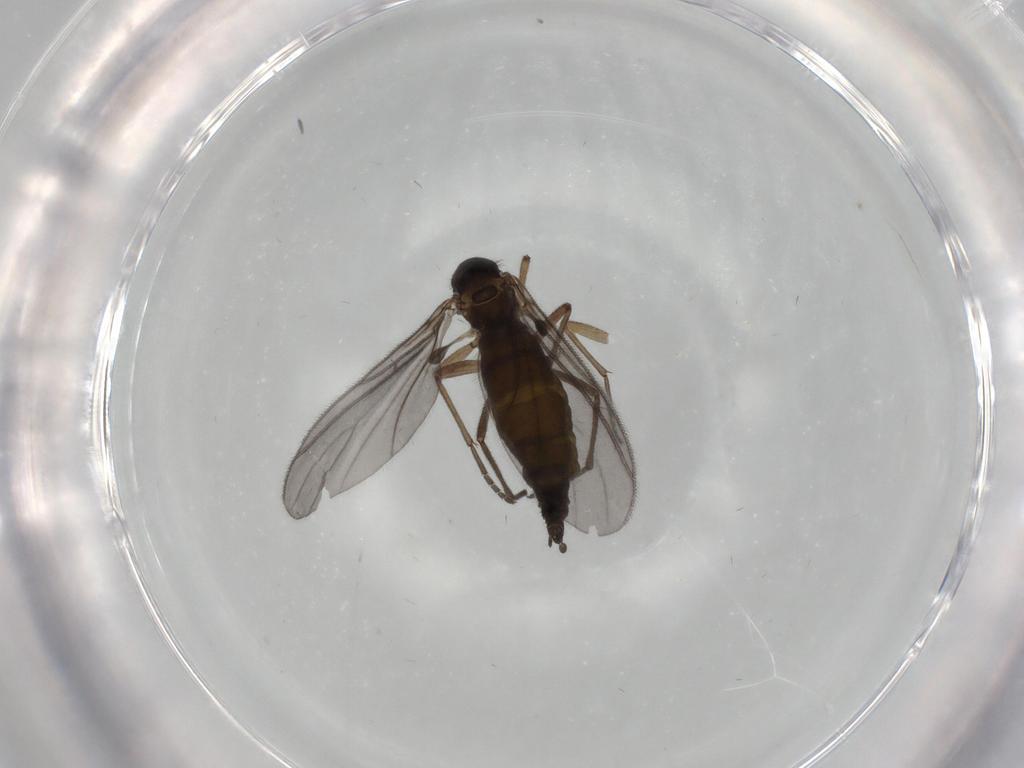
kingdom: Animalia
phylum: Arthropoda
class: Insecta
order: Diptera
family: Sciaridae
